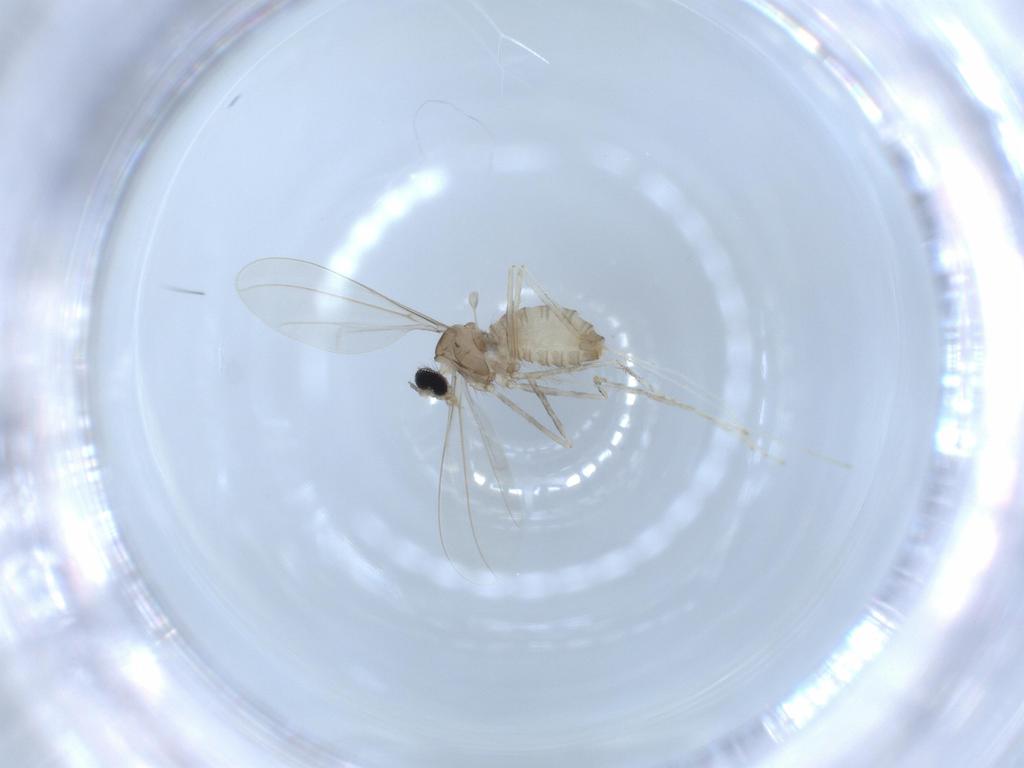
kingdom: Animalia
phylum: Arthropoda
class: Insecta
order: Diptera
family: Cecidomyiidae
